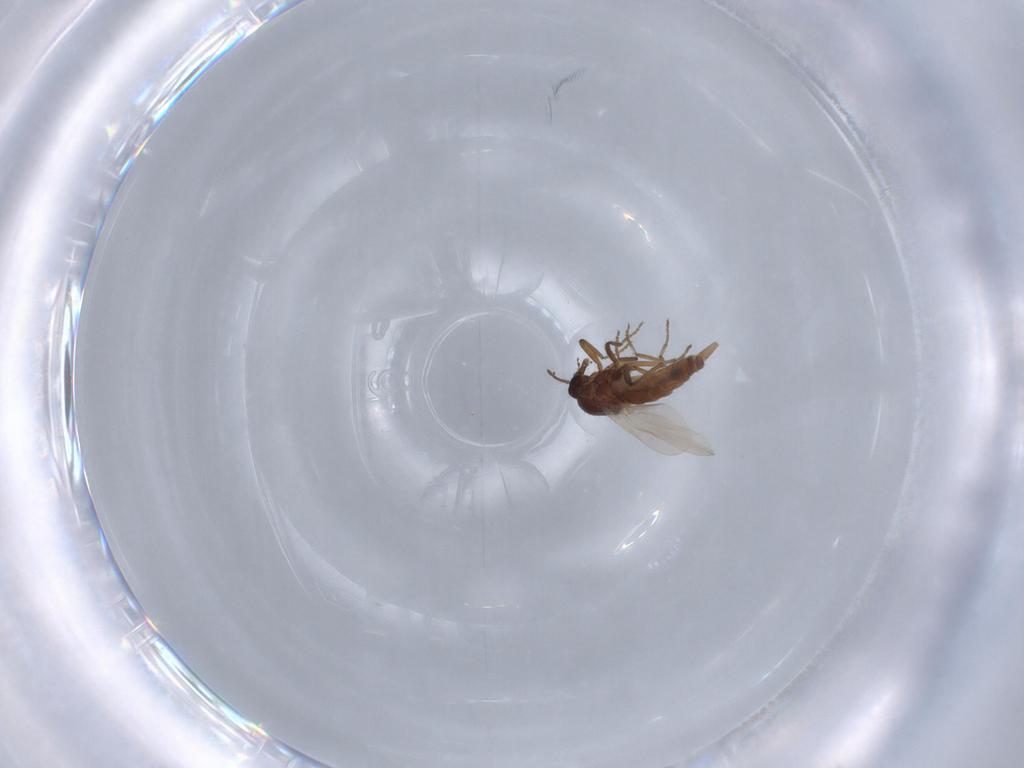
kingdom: Animalia
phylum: Arthropoda
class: Insecta
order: Diptera
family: Ceratopogonidae
